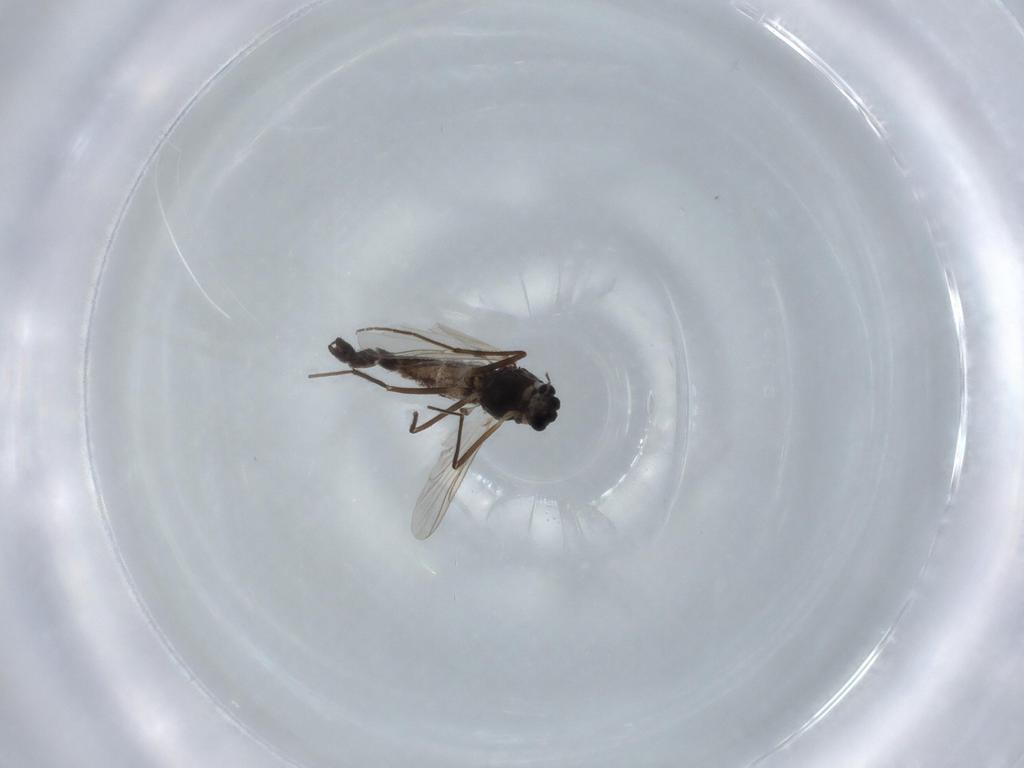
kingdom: Animalia
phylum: Arthropoda
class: Insecta
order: Diptera
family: Chironomidae
